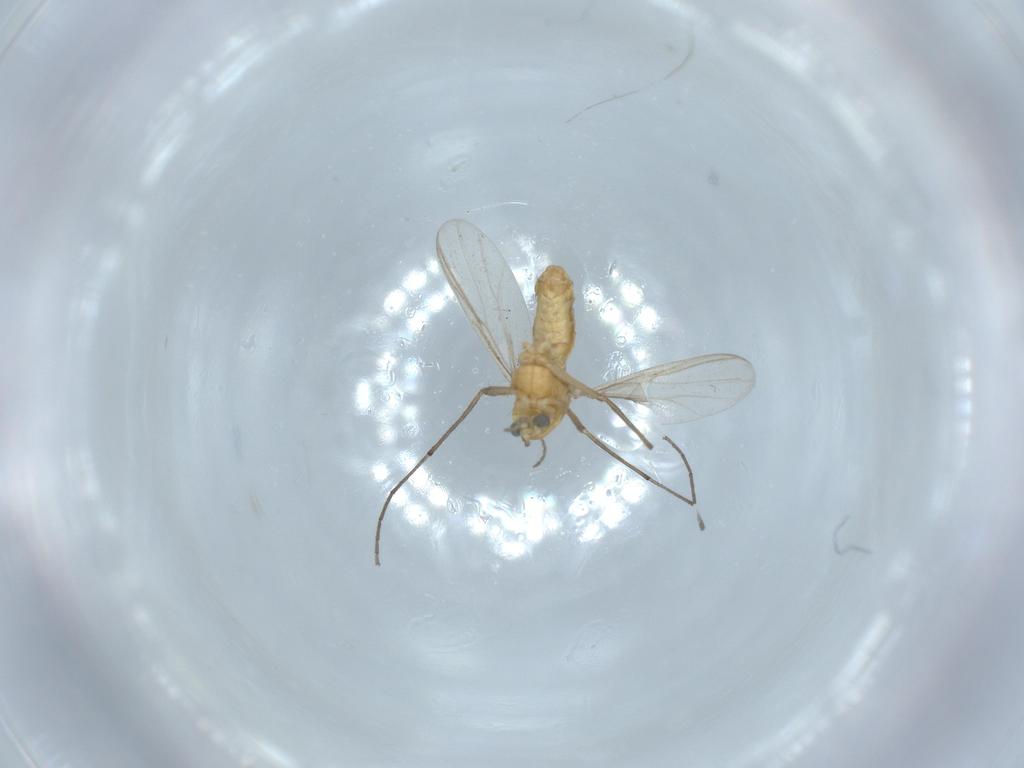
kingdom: Animalia
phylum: Arthropoda
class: Insecta
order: Diptera
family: Chironomidae
